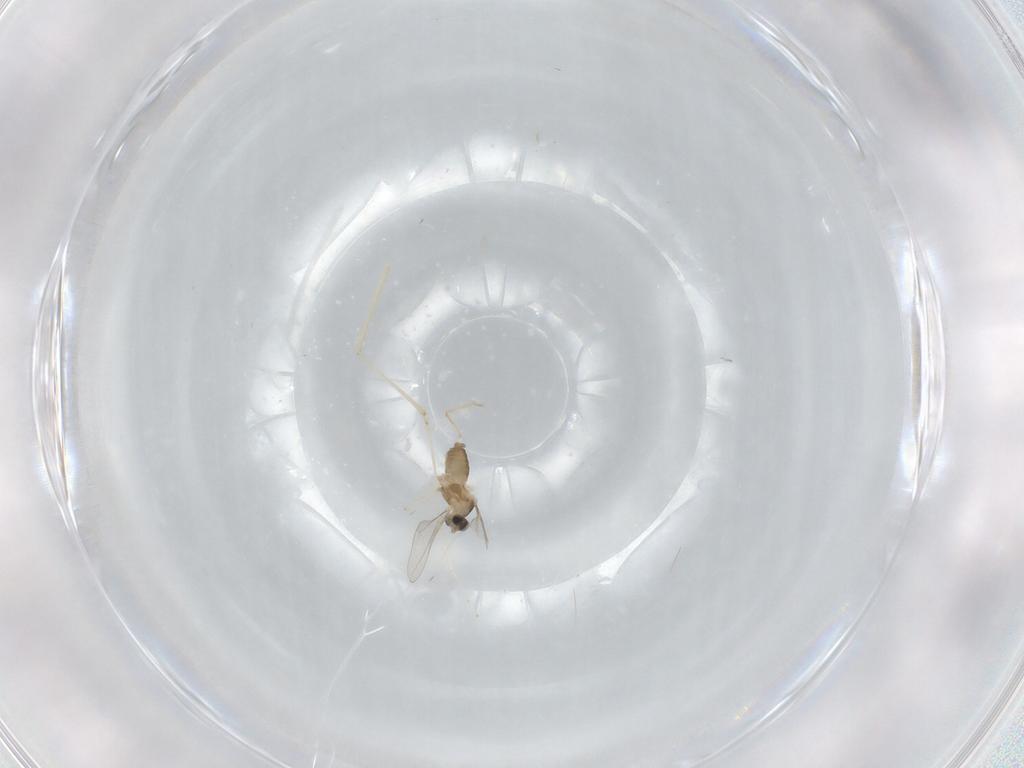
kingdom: Animalia
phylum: Arthropoda
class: Insecta
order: Diptera
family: Cecidomyiidae
